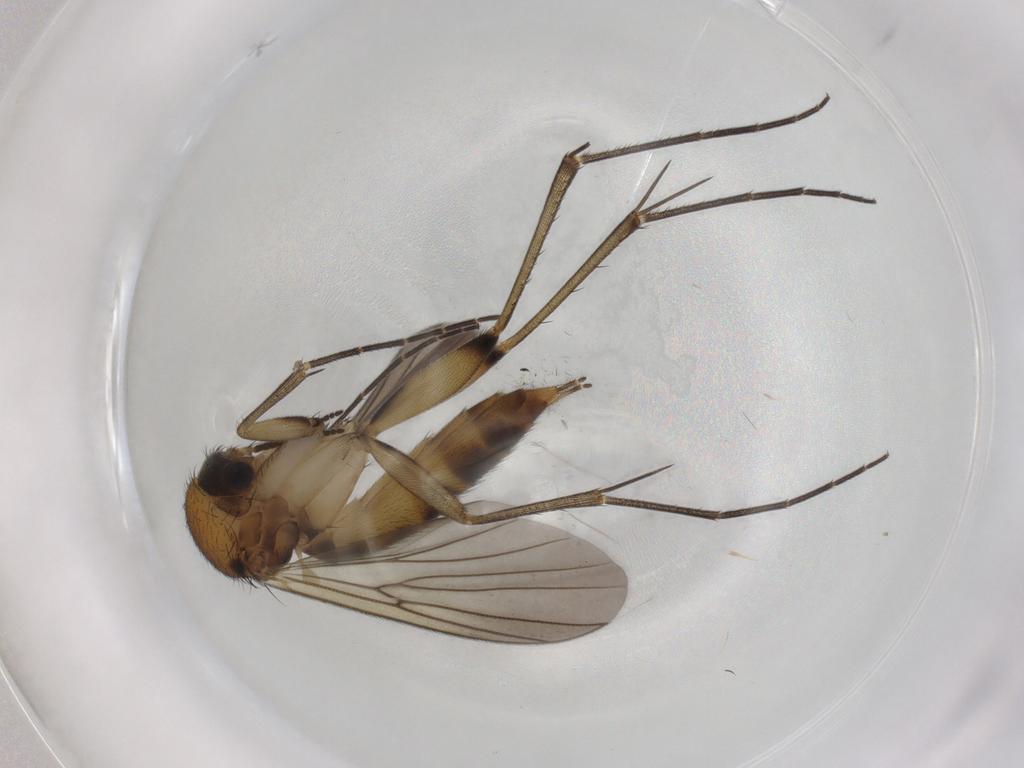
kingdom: Animalia
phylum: Arthropoda
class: Insecta
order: Diptera
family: Mycetophilidae
